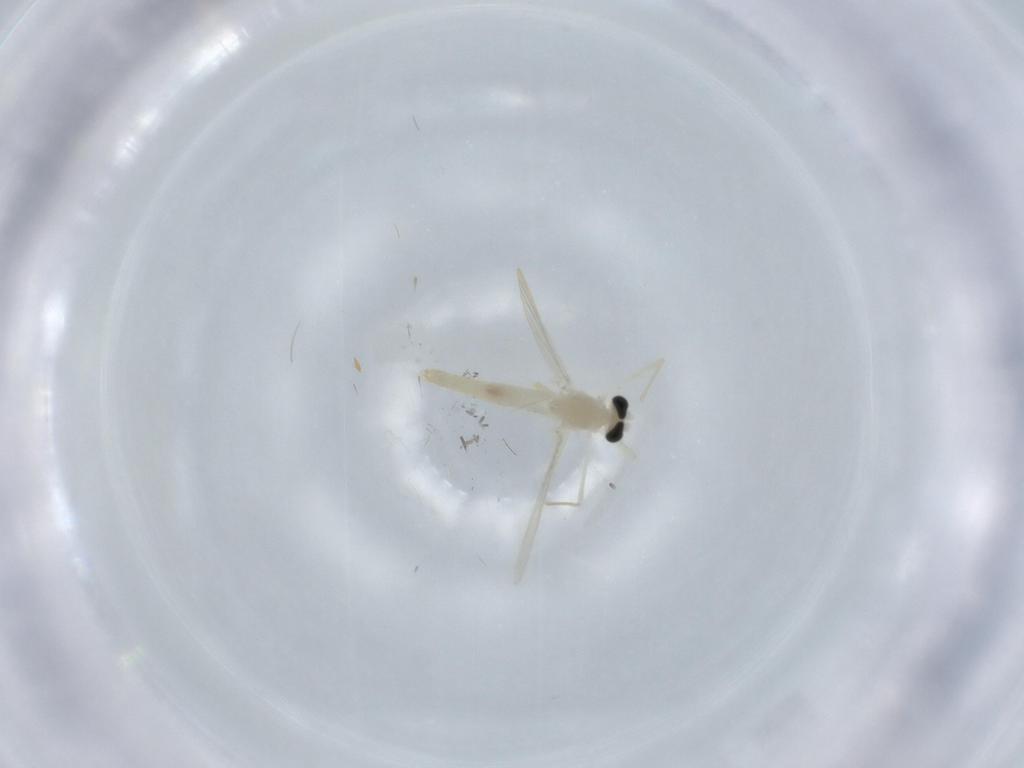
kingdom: Animalia
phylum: Arthropoda
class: Insecta
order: Diptera
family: Chironomidae
